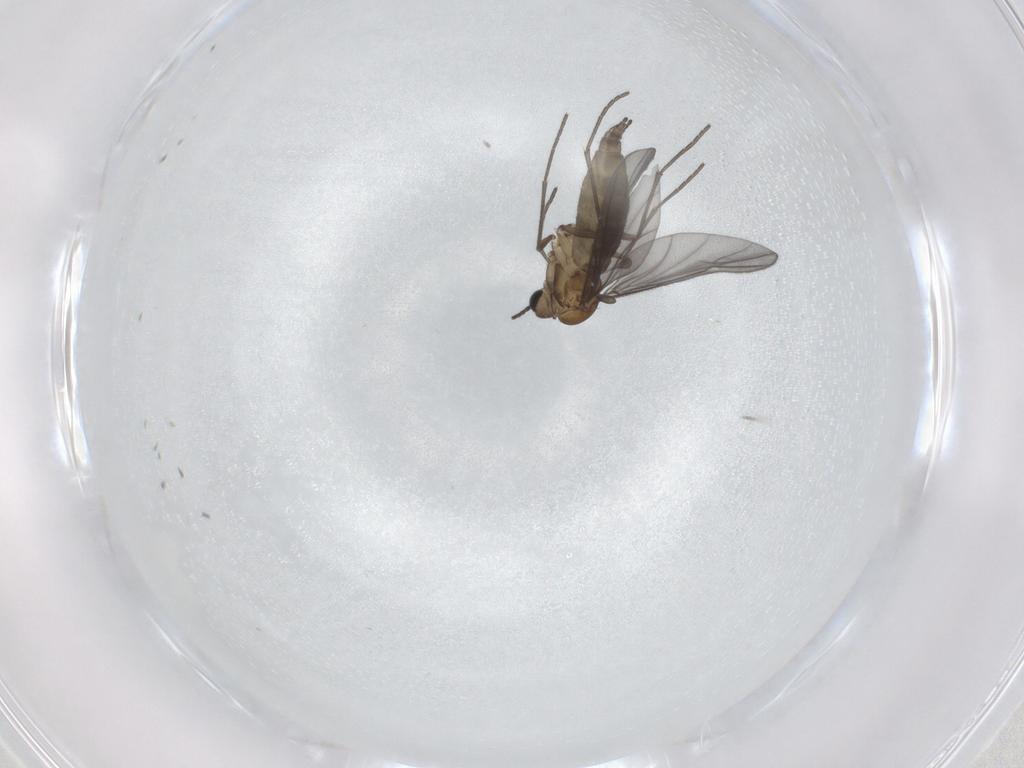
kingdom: Animalia
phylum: Arthropoda
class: Insecta
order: Diptera
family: Sciaridae
